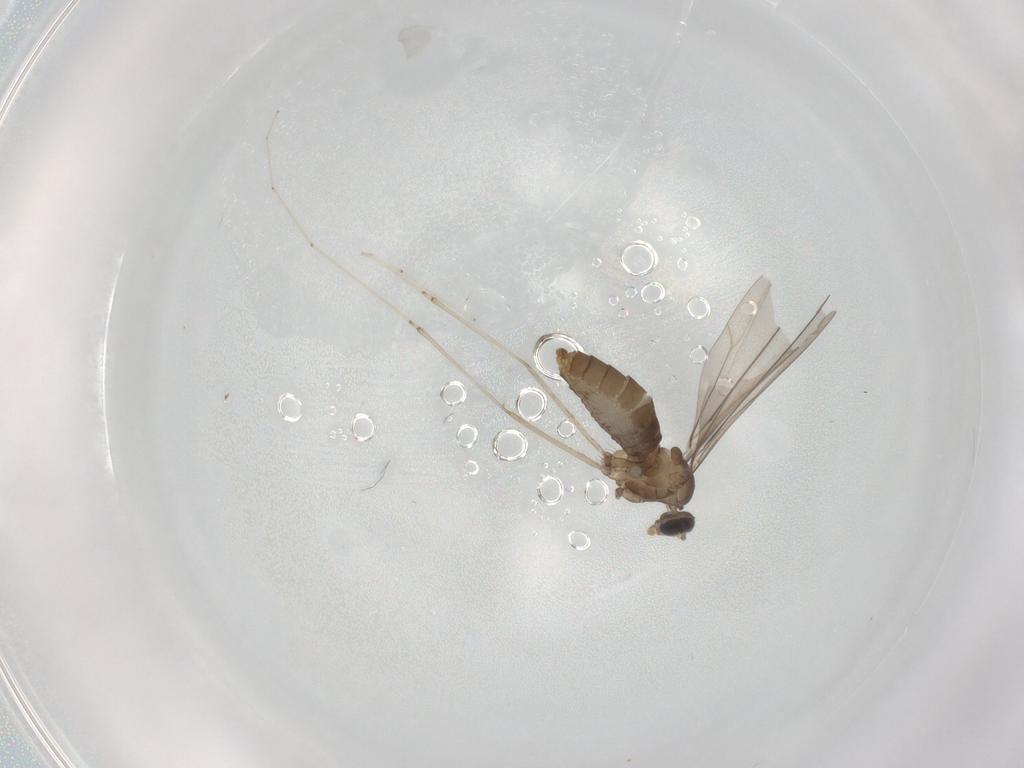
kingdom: Animalia
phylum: Arthropoda
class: Insecta
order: Diptera
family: Cecidomyiidae
